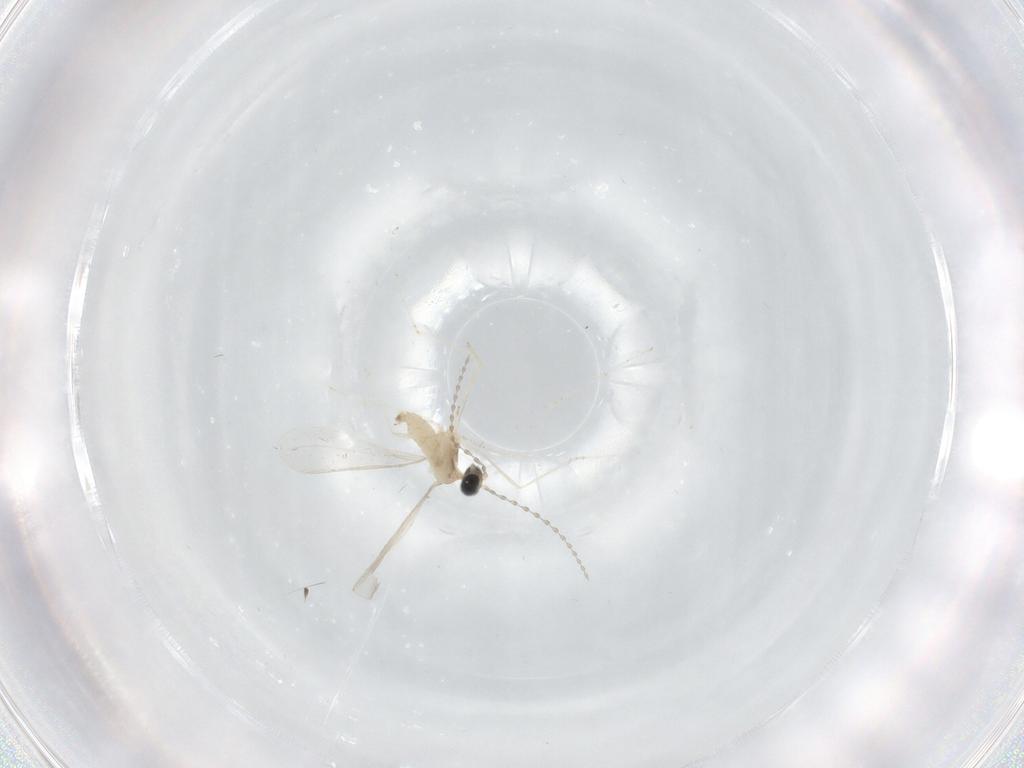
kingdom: Animalia
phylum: Arthropoda
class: Insecta
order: Diptera
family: Cecidomyiidae
